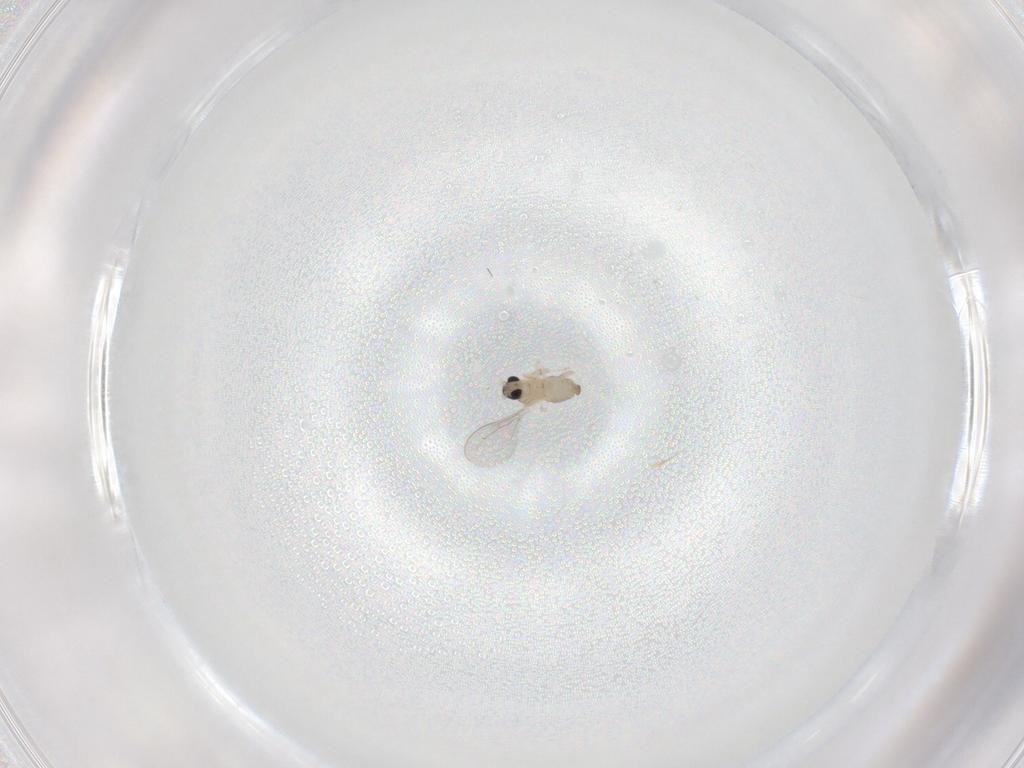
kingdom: Animalia
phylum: Arthropoda
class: Insecta
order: Diptera
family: Cecidomyiidae
